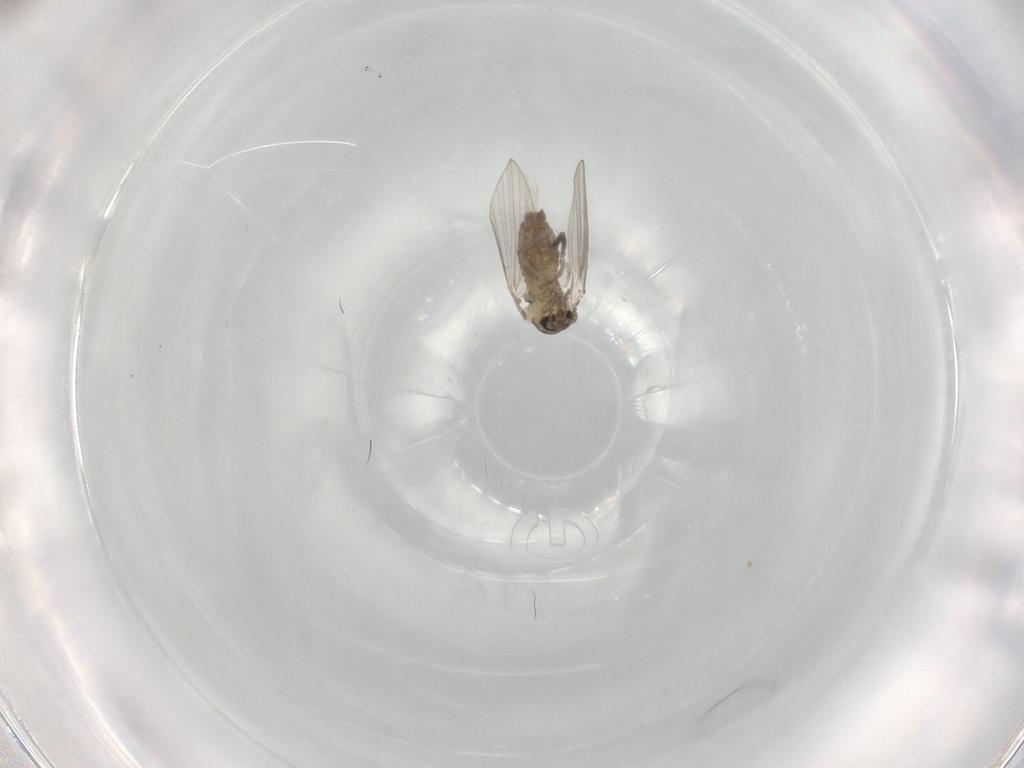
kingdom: Animalia
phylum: Arthropoda
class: Insecta
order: Diptera
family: Psychodidae
